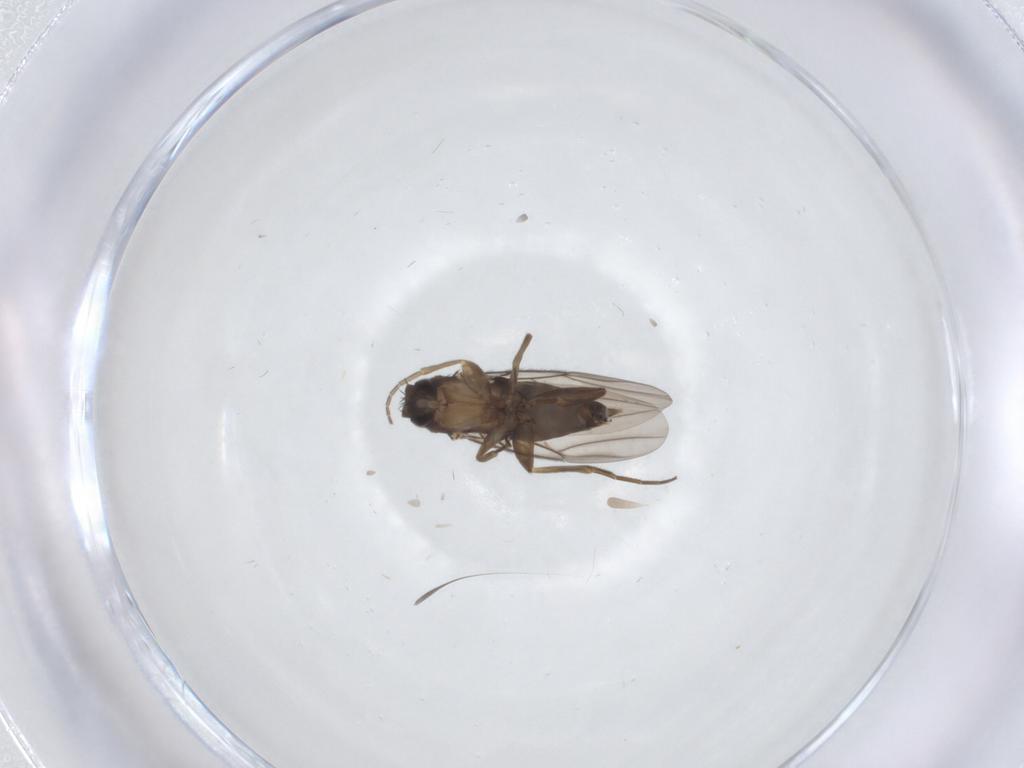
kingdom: Animalia
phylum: Arthropoda
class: Insecta
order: Diptera
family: Phoridae
